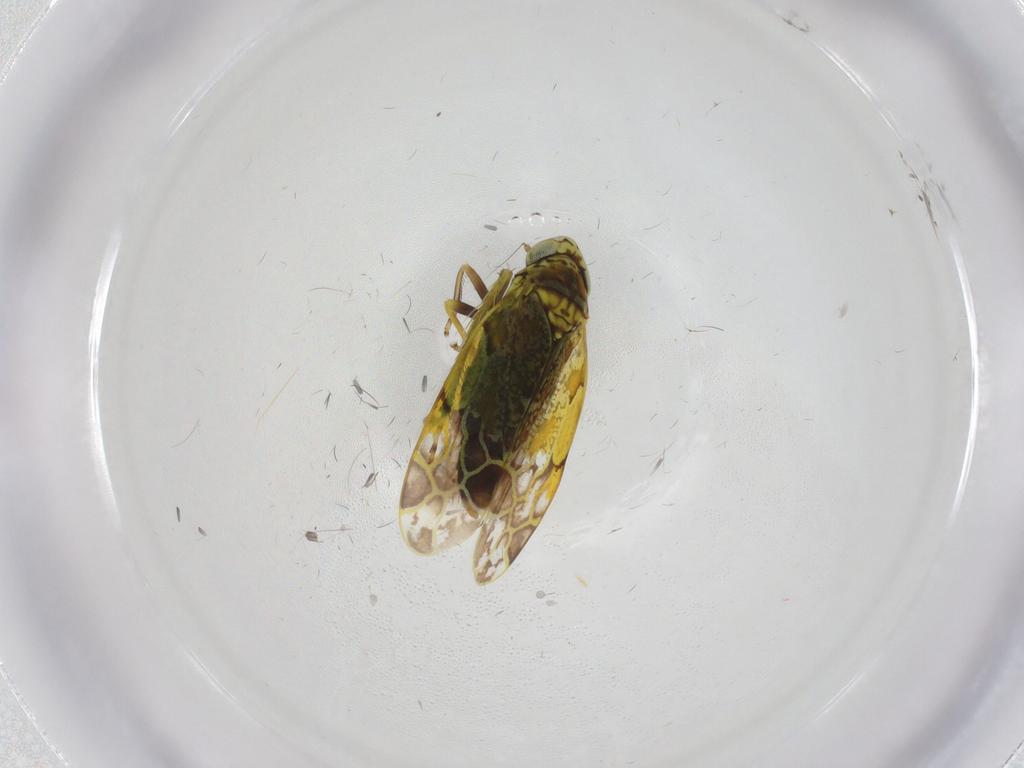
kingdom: Animalia
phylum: Arthropoda
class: Insecta
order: Hemiptera
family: Cicadellidae
